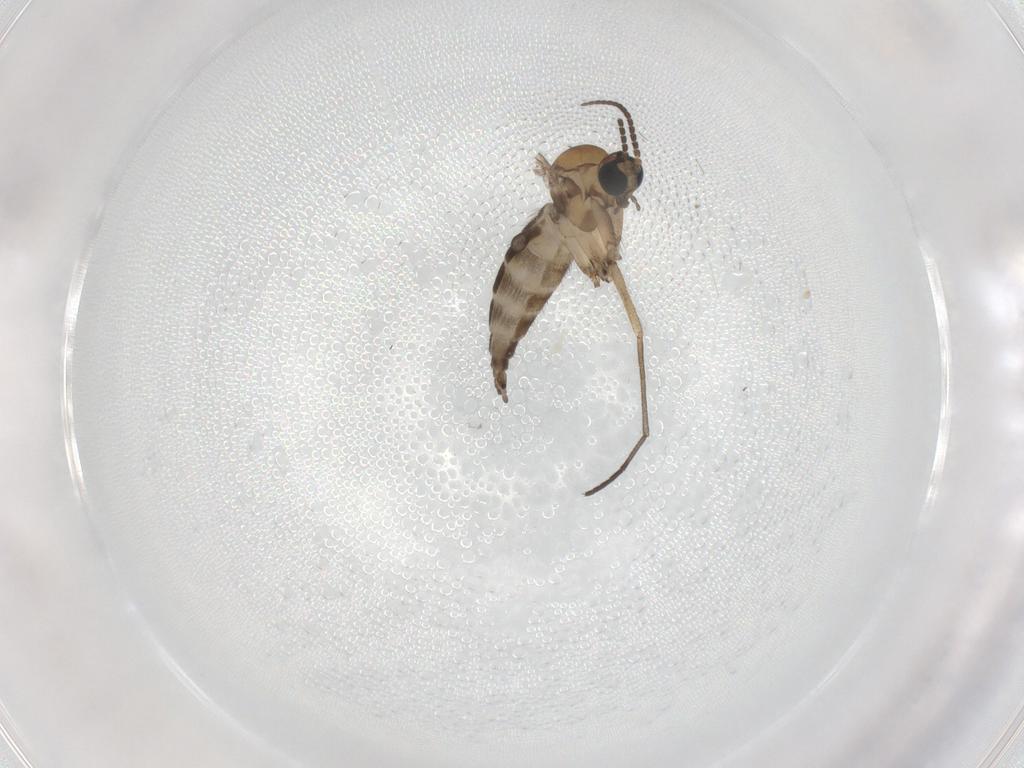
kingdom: Animalia
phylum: Arthropoda
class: Insecta
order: Diptera
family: Sciaridae
